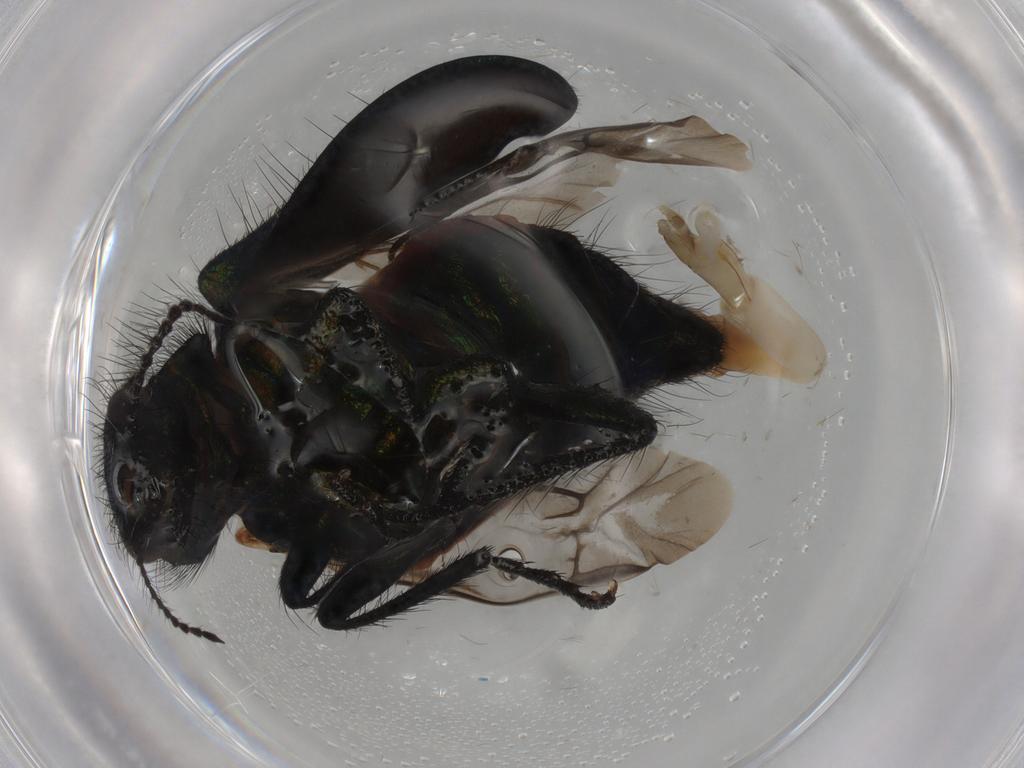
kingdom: Animalia
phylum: Arthropoda
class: Insecta
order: Coleoptera
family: Melyridae
